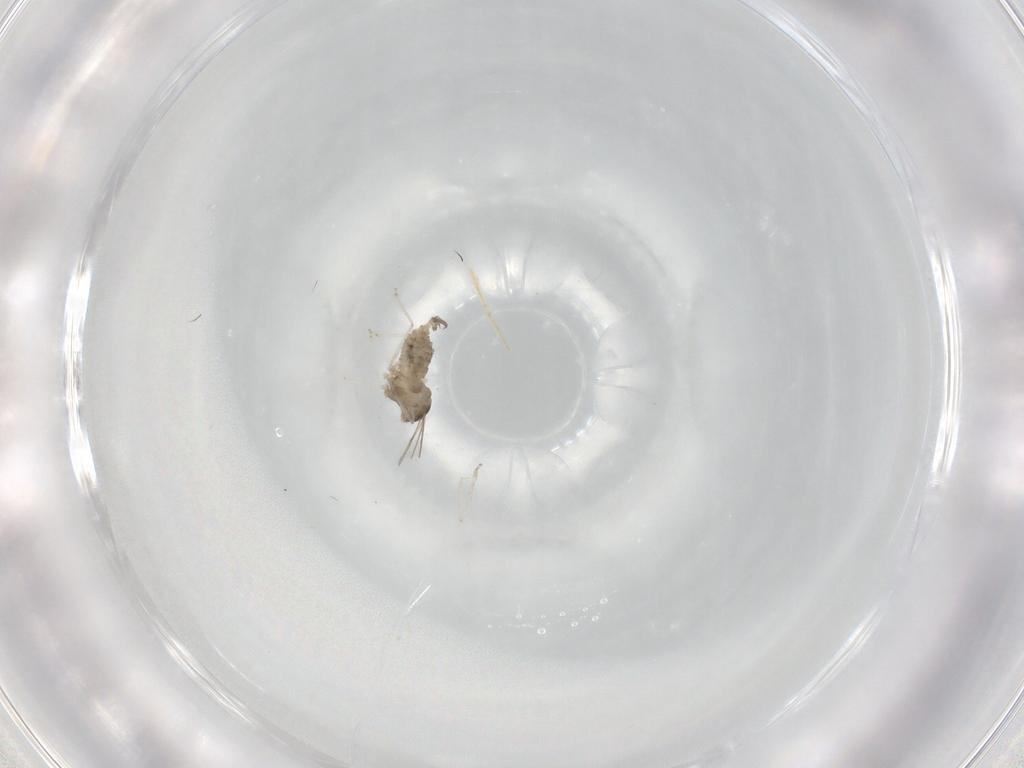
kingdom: Animalia
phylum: Arthropoda
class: Insecta
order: Diptera
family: Cecidomyiidae
